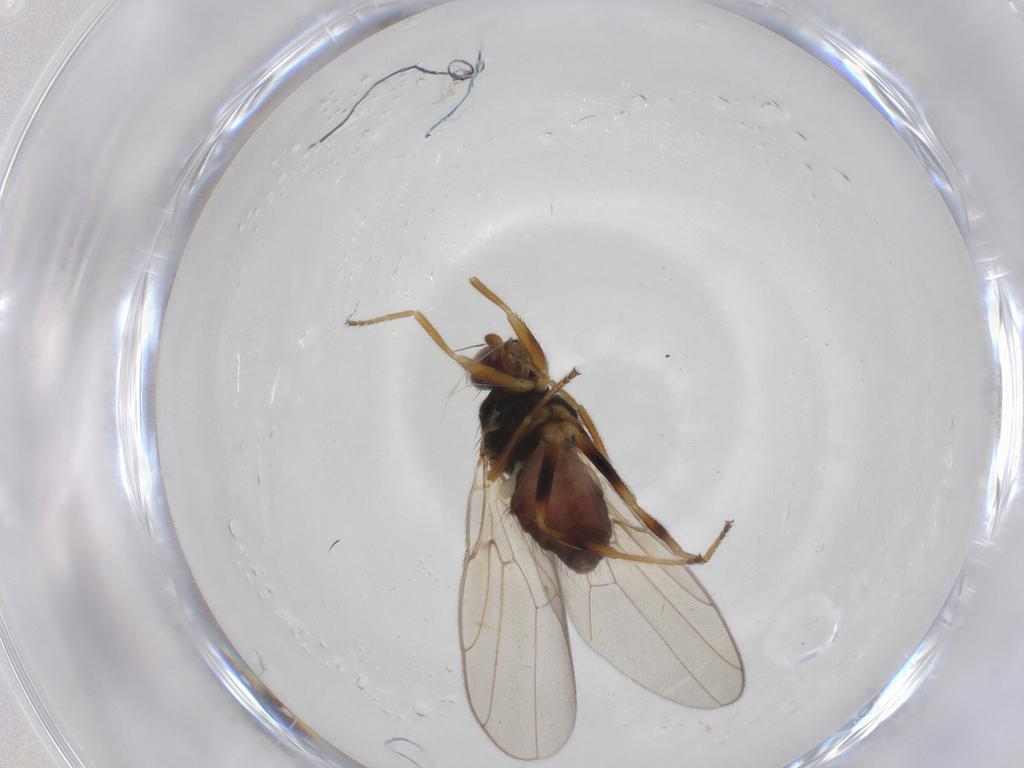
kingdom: Animalia
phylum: Arthropoda
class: Insecta
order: Diptera
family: Chloropidae
